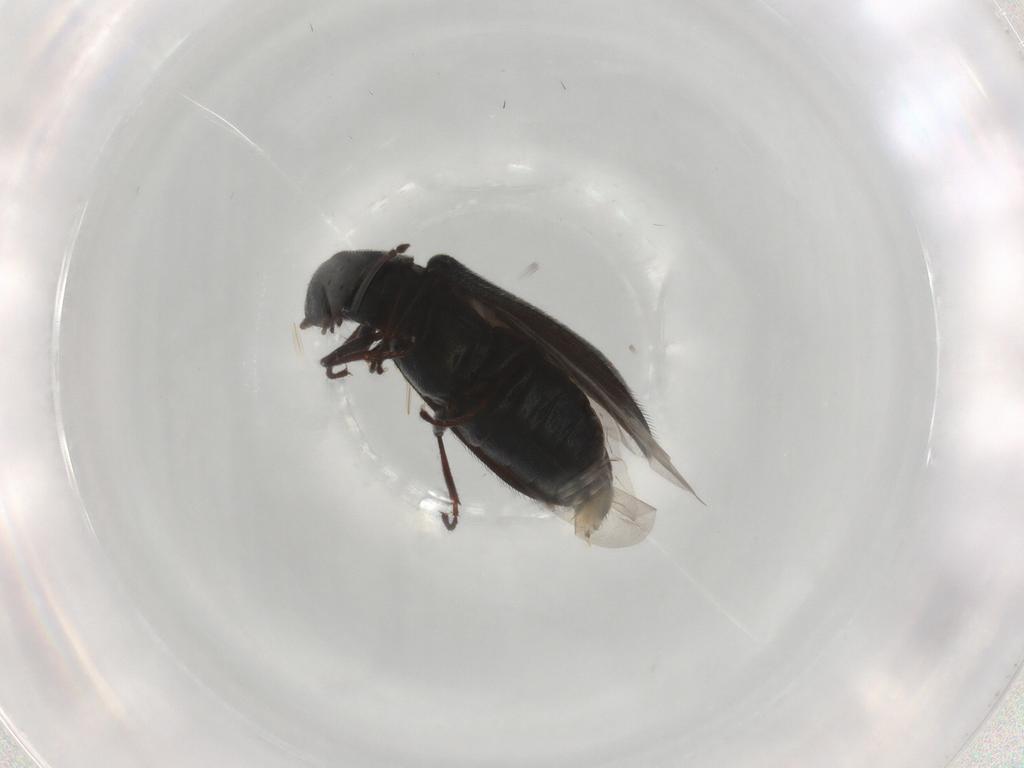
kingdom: Animalia
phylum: Arthropoda
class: Insecta
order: Coleoptera
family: Melyridae
